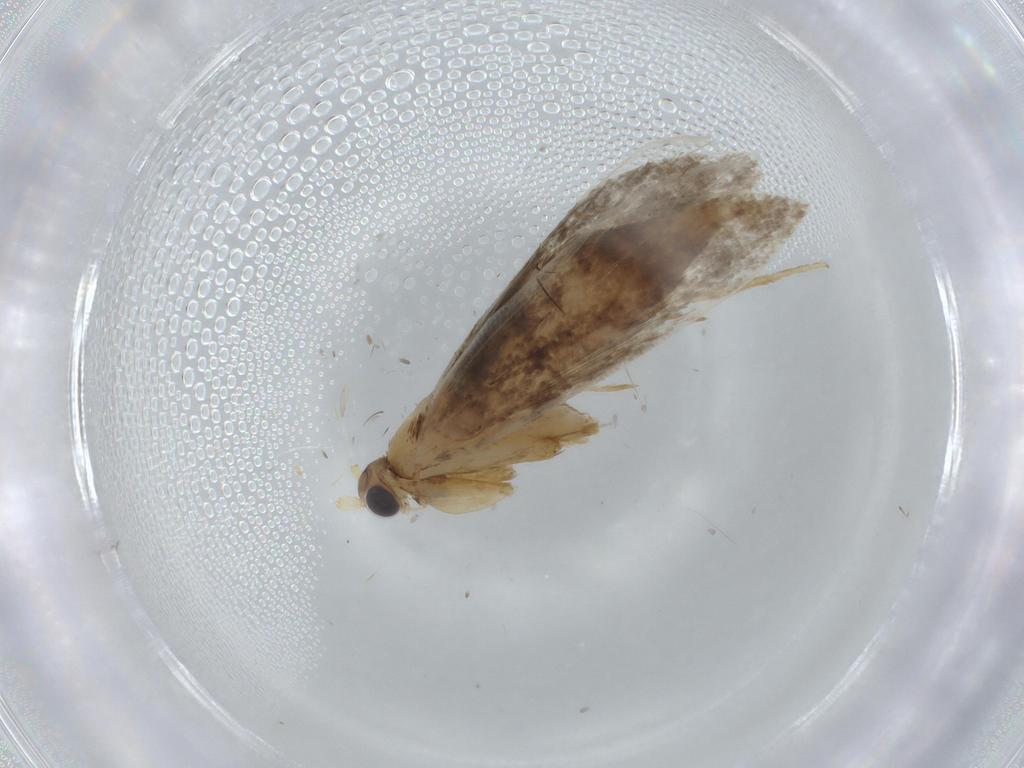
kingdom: Animalia
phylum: Arthropoda
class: Insecta
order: Lepidoptera
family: Tineidae
